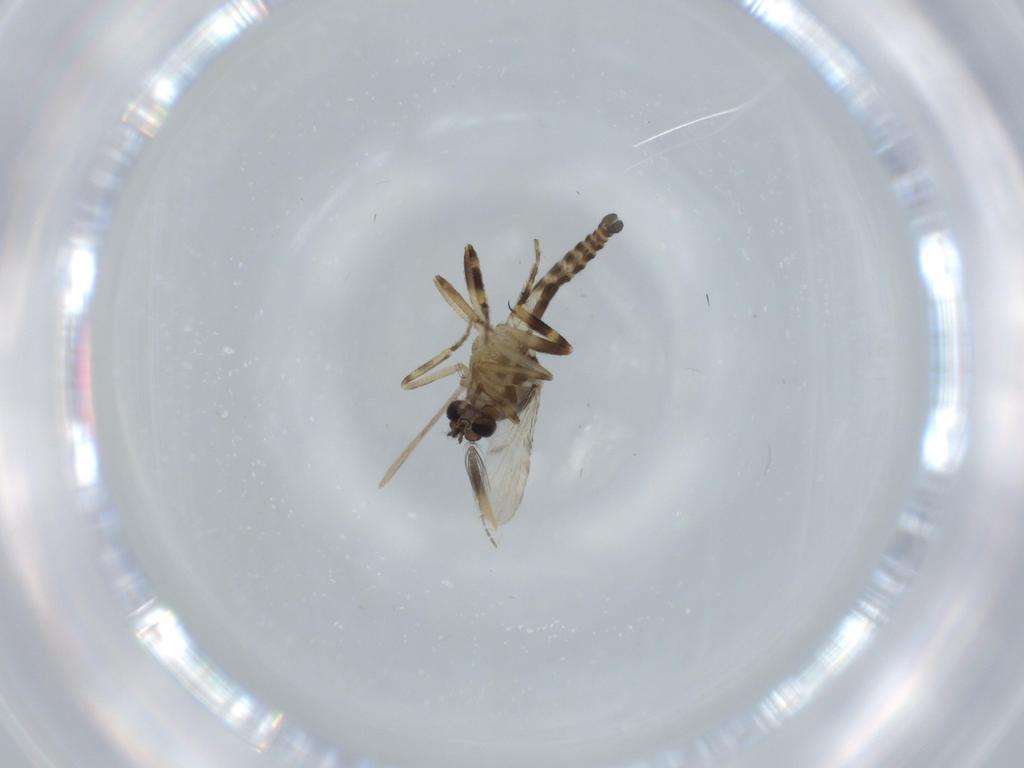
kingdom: Animalia
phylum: Arthropoda
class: Insecta
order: Diptera
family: Ceratopogonidae
